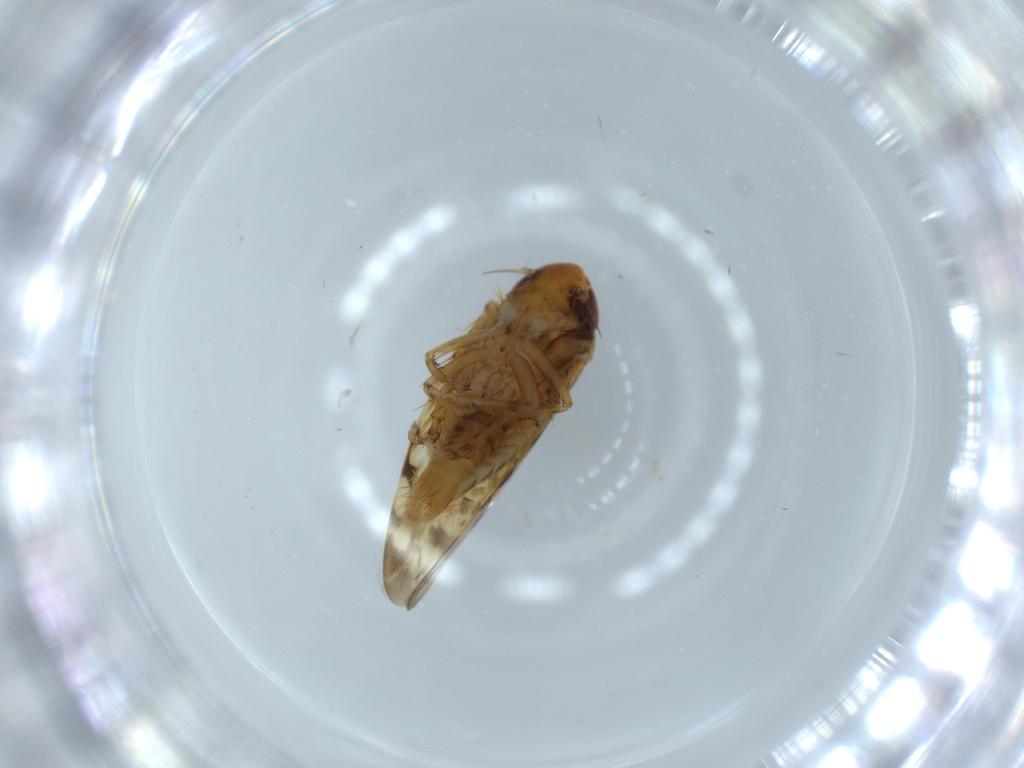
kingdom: Animalia
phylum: Arthropoda
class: Insecta
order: Hemiptera
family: Cicadellidae
